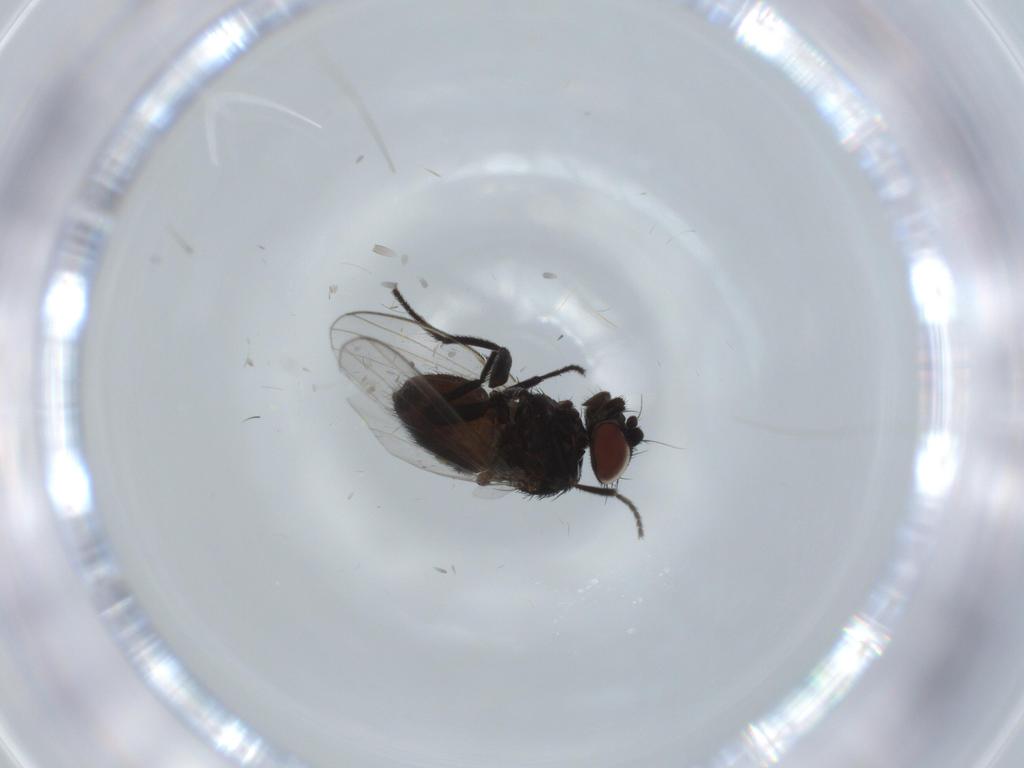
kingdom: Animalia
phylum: Arthropoda
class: Insecta
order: Diptera
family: Milichiidae
